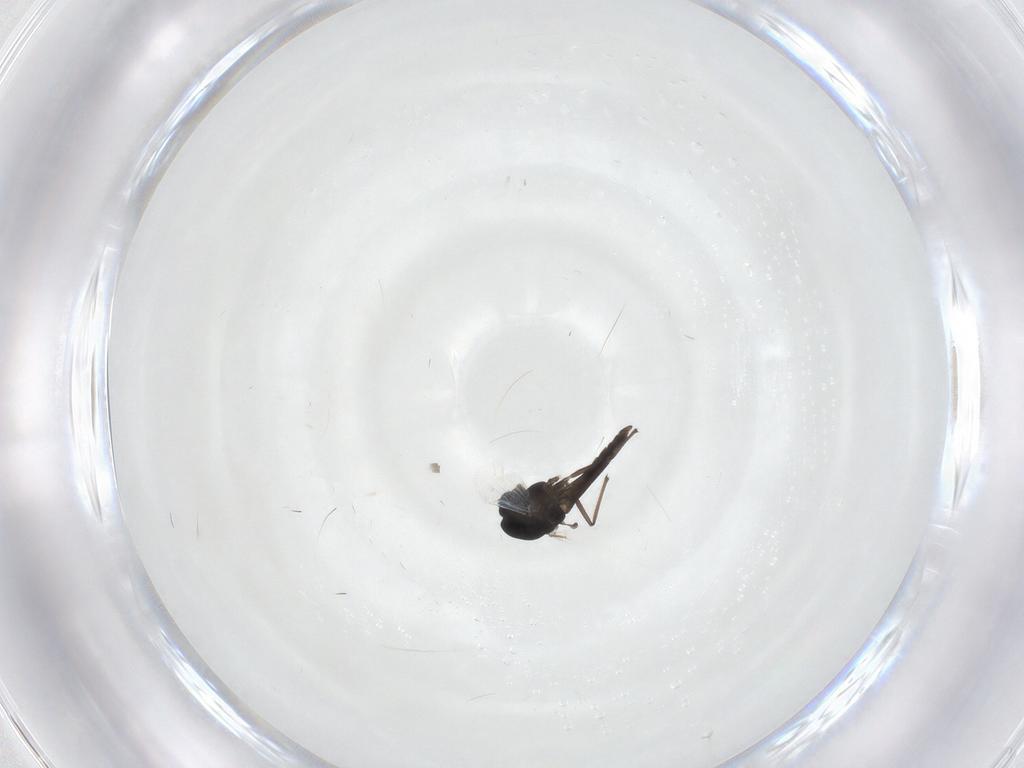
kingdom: Animalia
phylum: Arthropoda
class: Insecta
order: Diptera
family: Chironomidae
